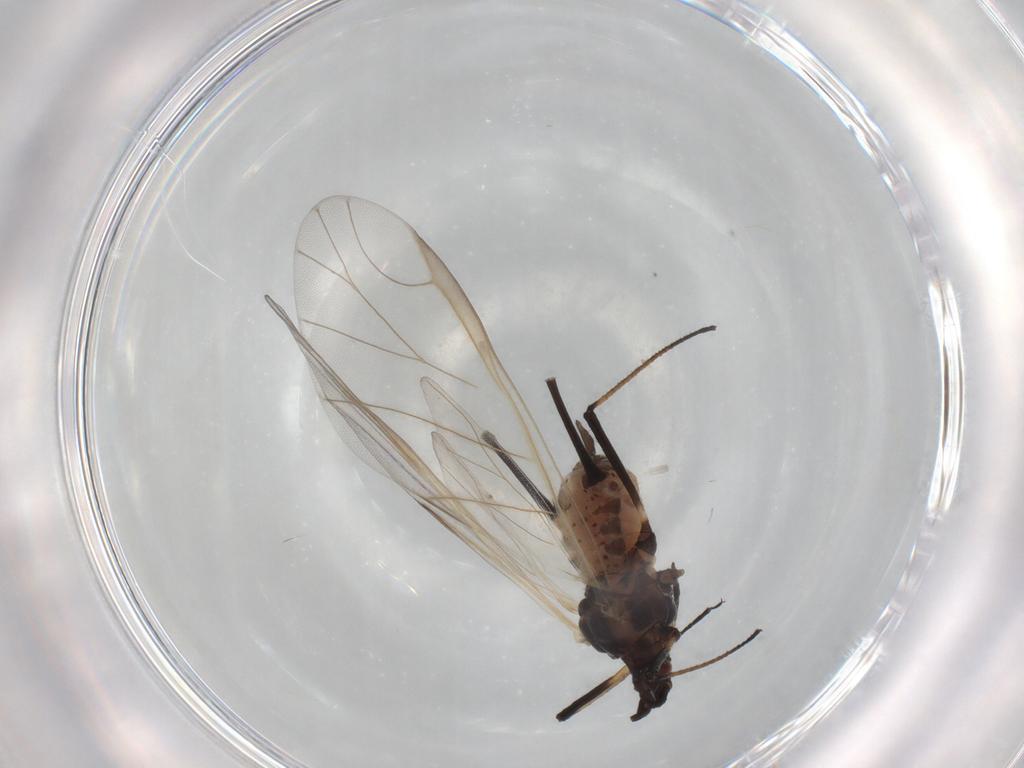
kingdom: Animalia
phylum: Arthropoda
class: Insecta
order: Hemiptera
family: Aphididae
